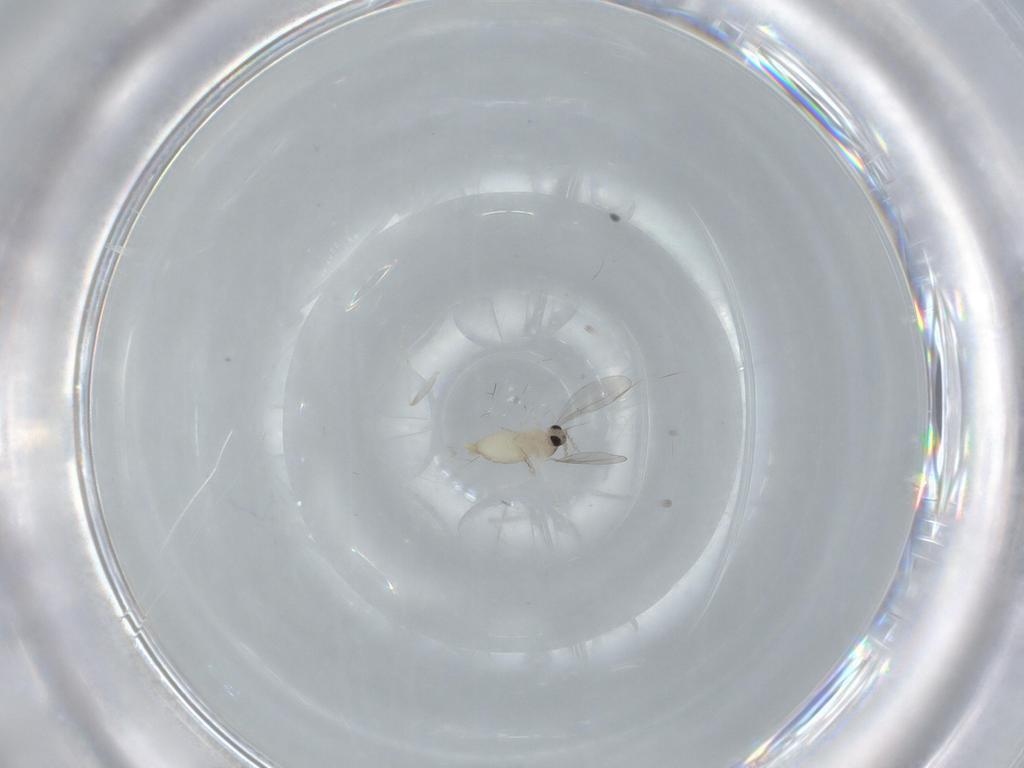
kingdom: Animalia
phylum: Arthropoda
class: Insecta
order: Diptera
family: Cecidomyiidae
